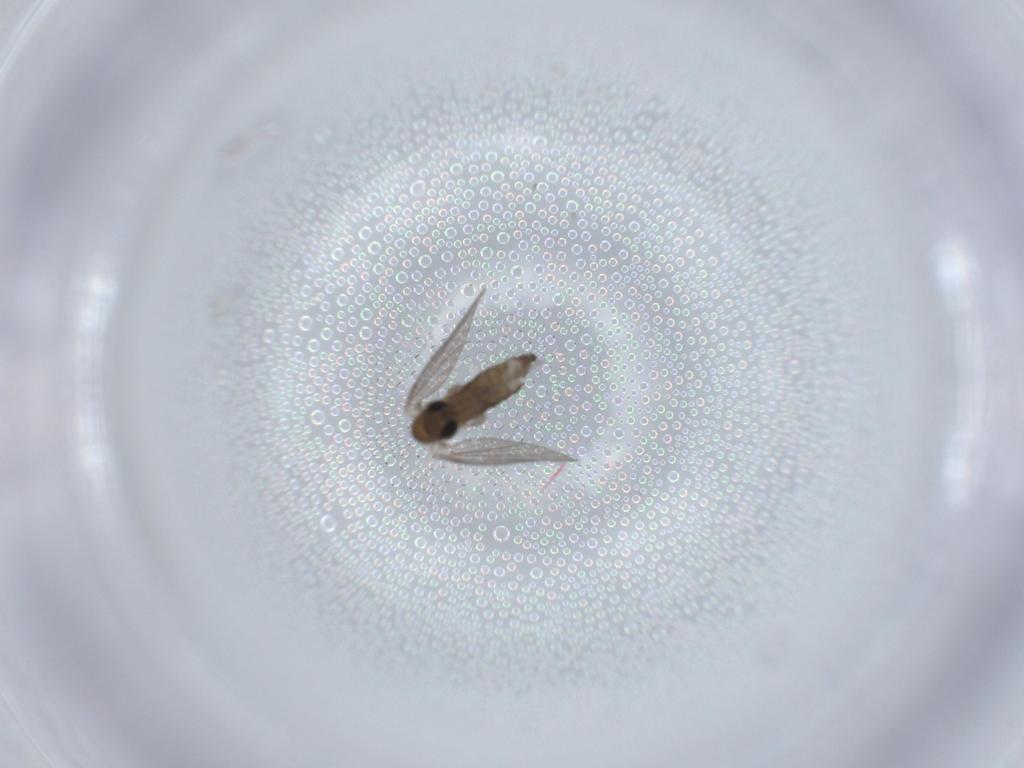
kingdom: Animalia
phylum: Arthropoda
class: Insecta
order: Diptera
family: Psychodidae
